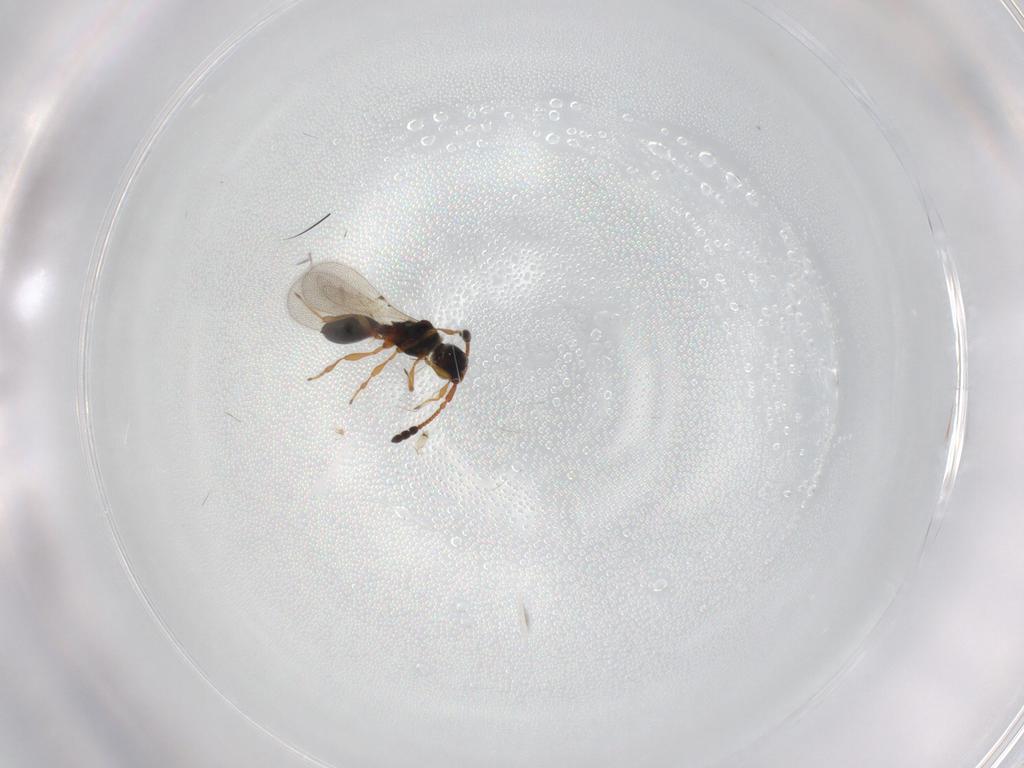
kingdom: Animalia
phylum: Arthropoda
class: Insecta
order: Hymenoptera
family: Diapriidae
